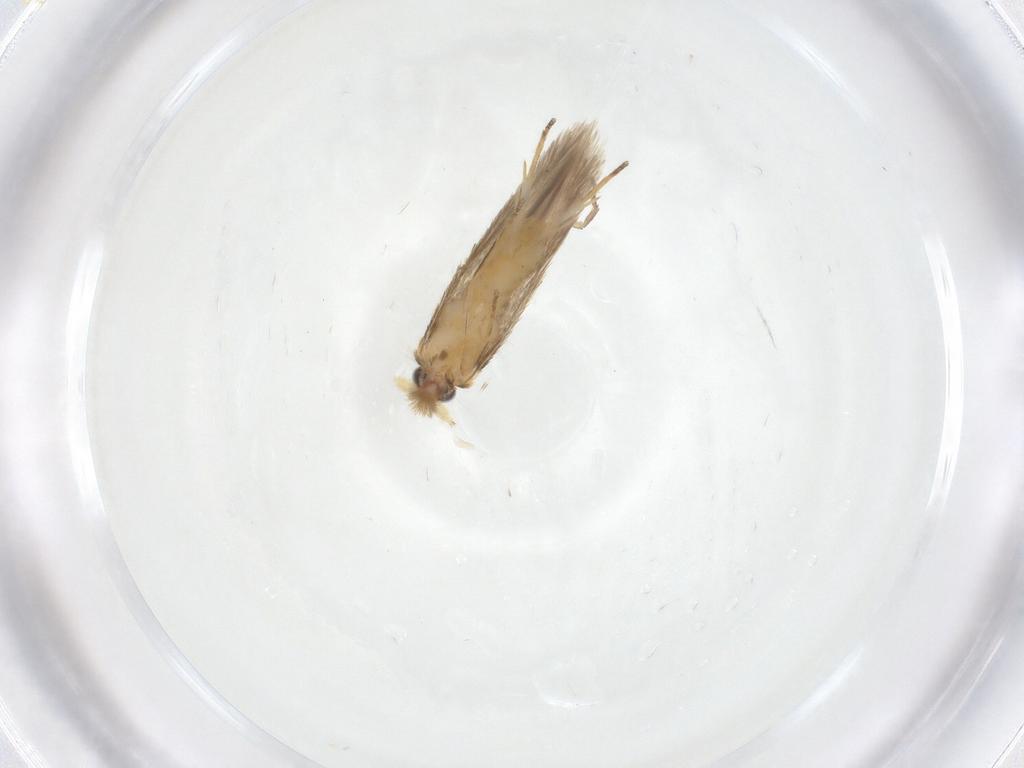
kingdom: Animalia
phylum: Arthropoda
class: Insecta
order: Lepidoptera
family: Nepticulidae
